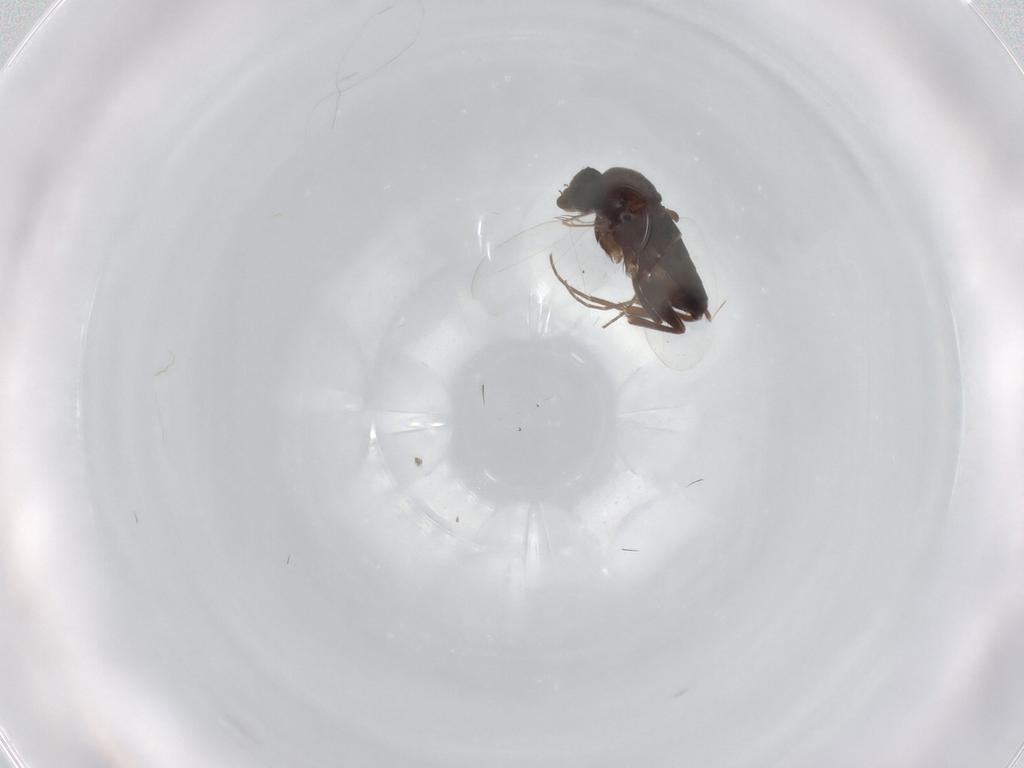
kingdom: Animalia
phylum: Arthropoda
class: Insecta
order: Diptera
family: Phoridae
